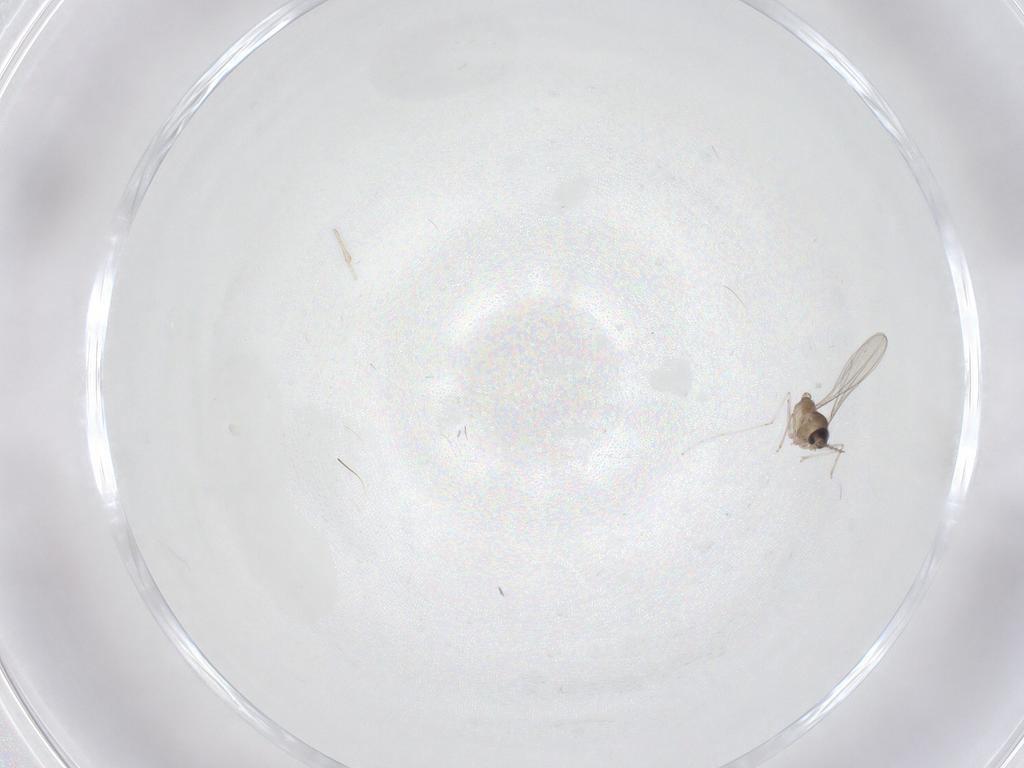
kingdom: Animalia
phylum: Arthropoda
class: Insecta
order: Diptera
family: Cecidomyiidae
